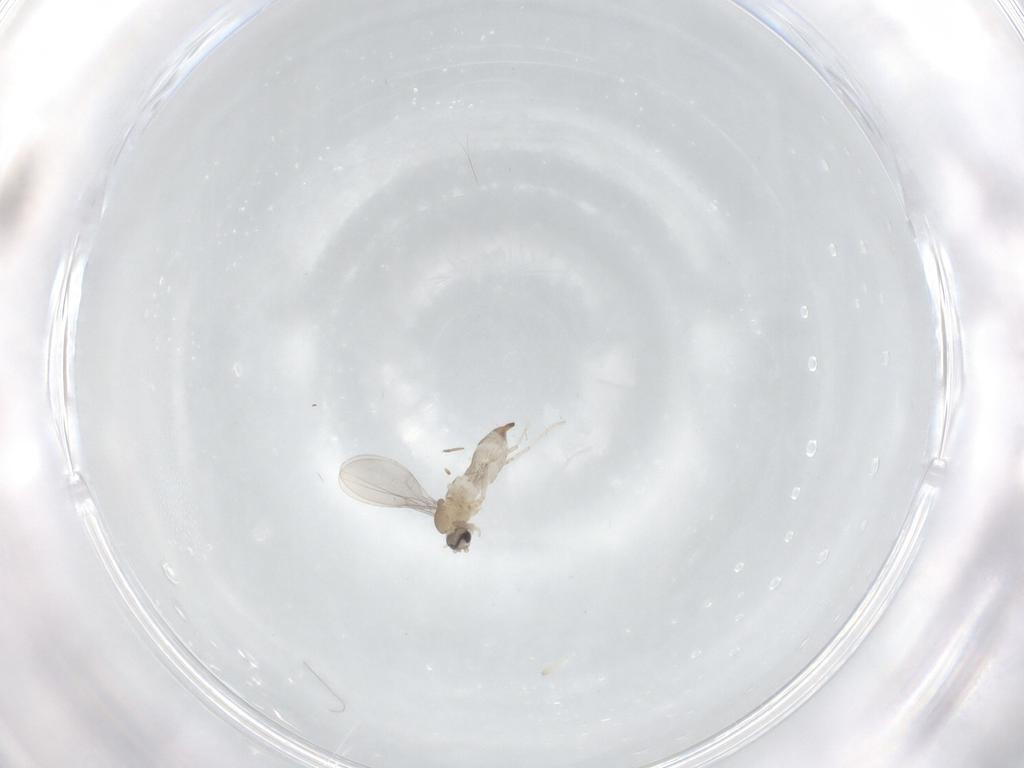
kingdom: Animalia
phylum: Arthropoda
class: Insecta
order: Diptera
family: Cecidomyiidae
